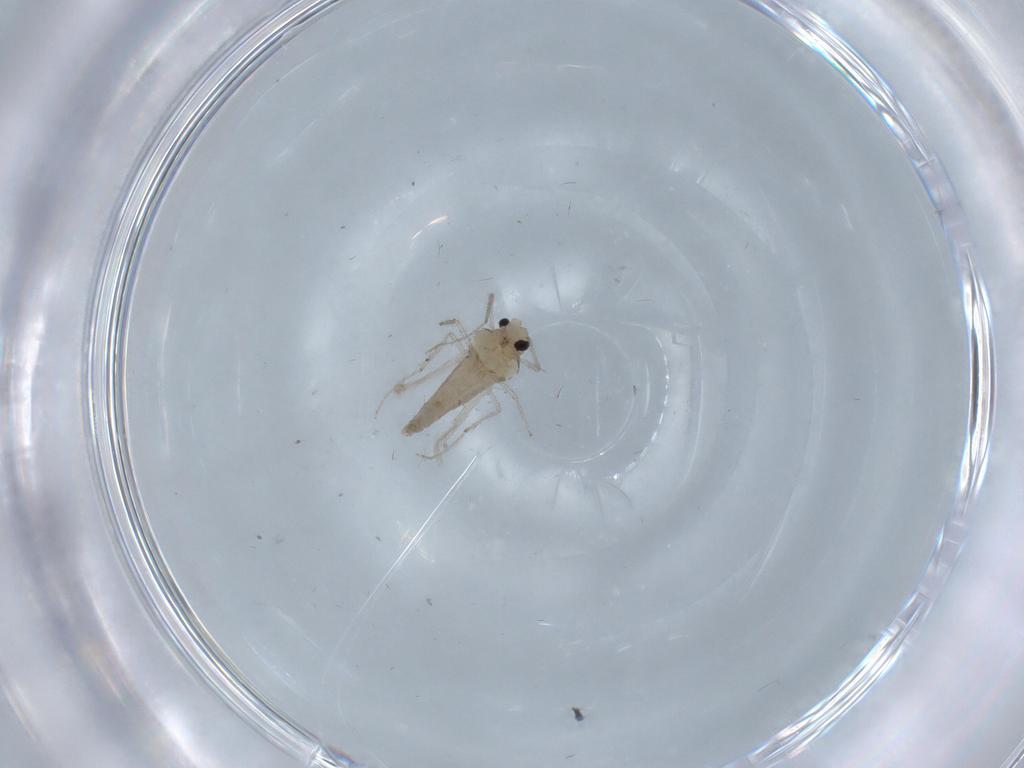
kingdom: Animalia
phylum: Arthropoda
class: Insecta
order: Diptera
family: Chironomidae
